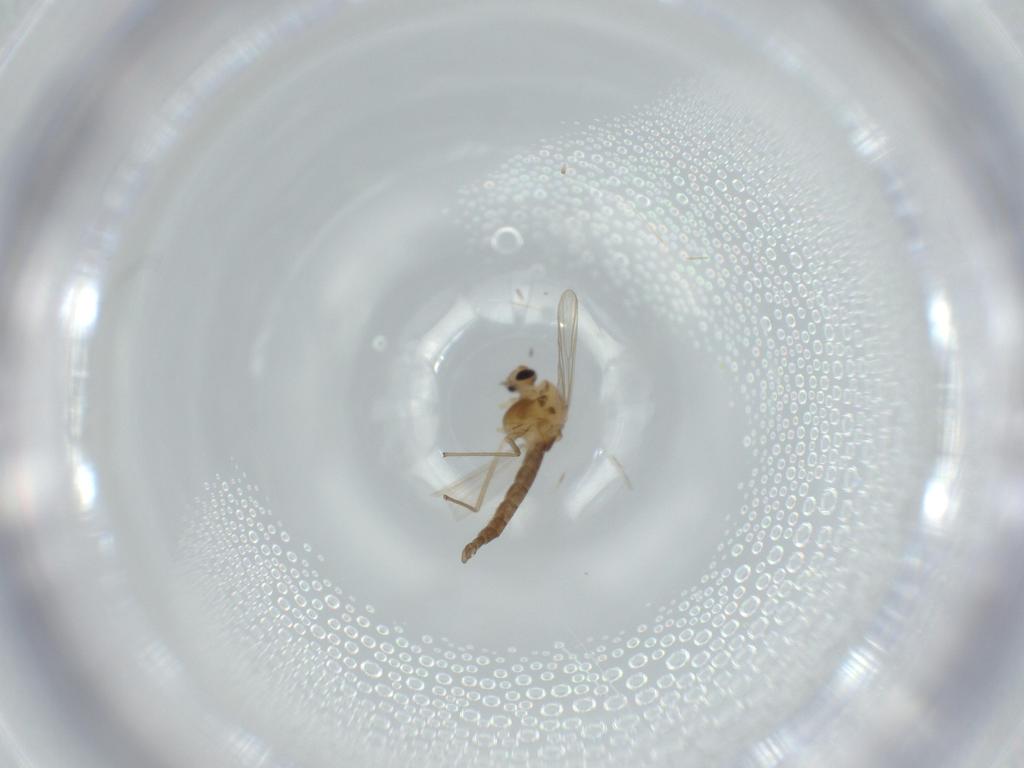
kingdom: Animalia
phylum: Arthropoda
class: Insecta
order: Diptera
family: Chironomidae
